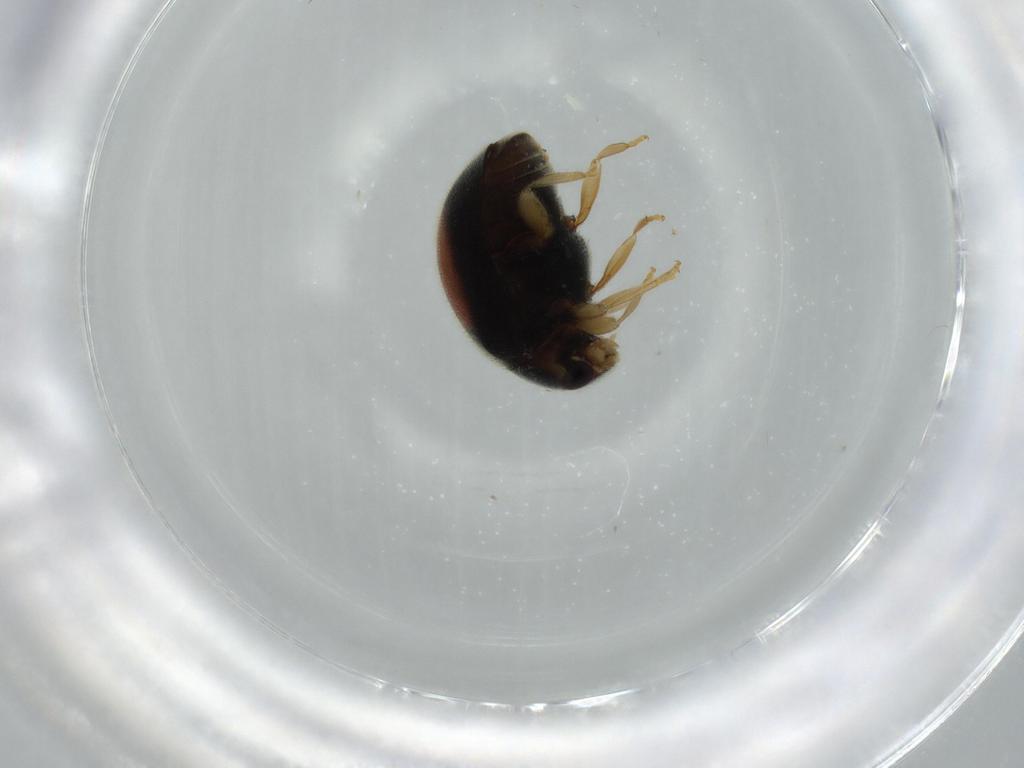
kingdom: Animalia
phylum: Arthropoda
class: Insecta
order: Coleoptera
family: Coccinellidae
